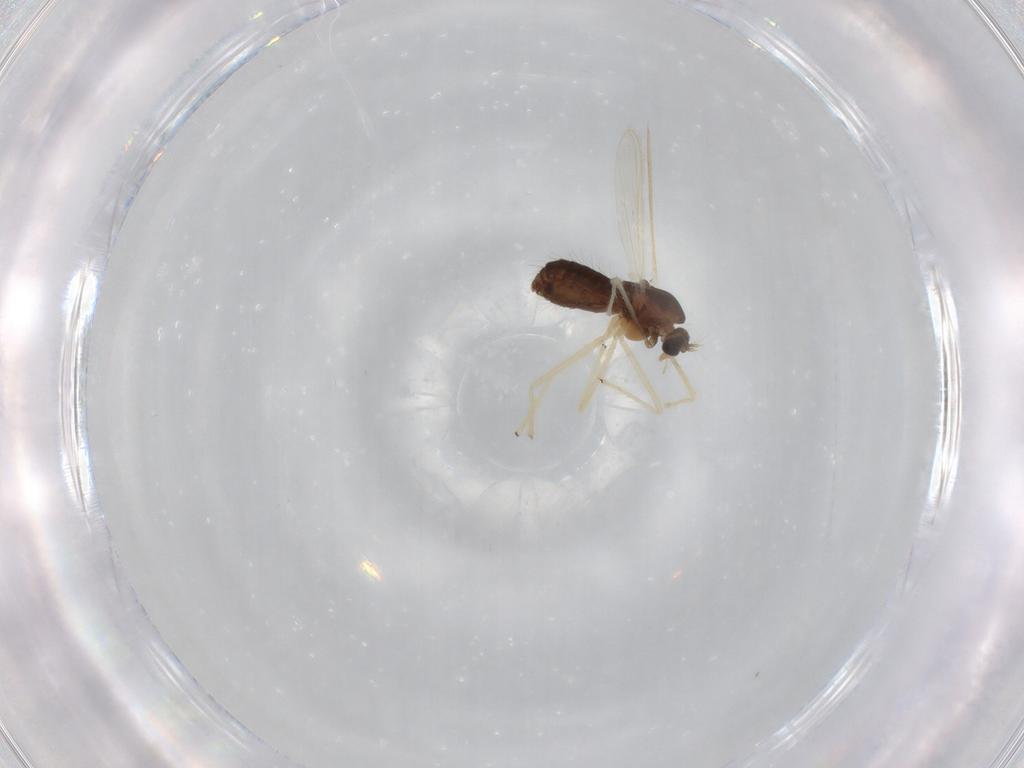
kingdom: Animalia
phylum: Arthropoda
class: Insecta
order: Diptera
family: Chironomidae
